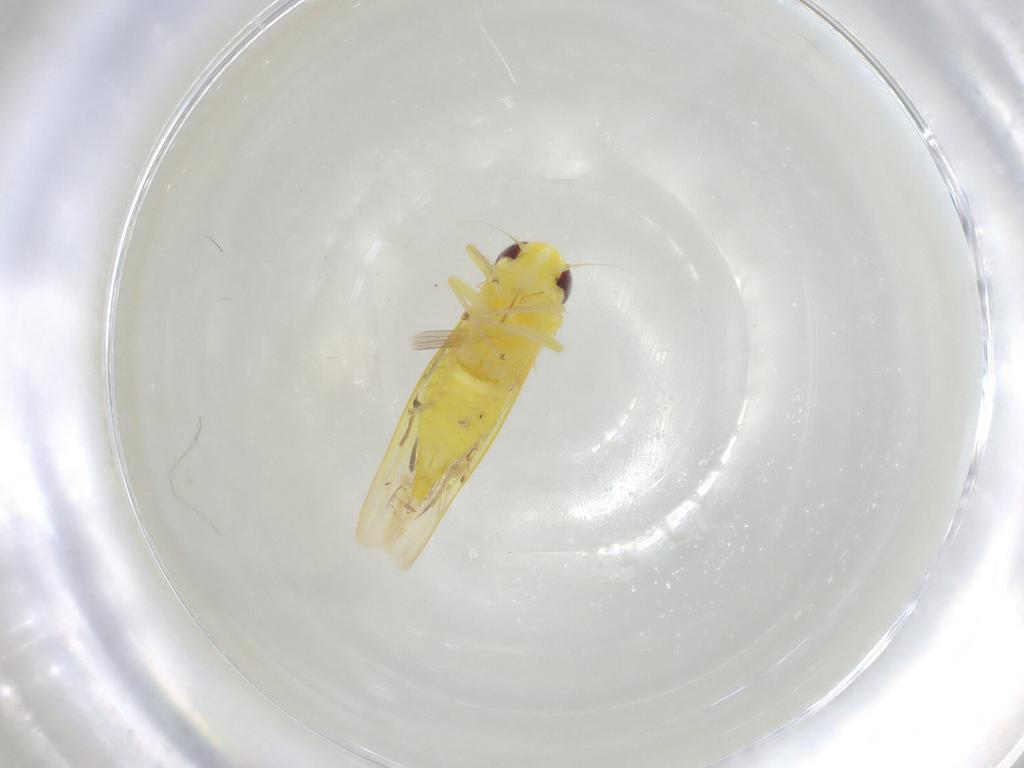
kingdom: Animalia
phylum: Arthropoda
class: Insecta
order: Hemiptera
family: Cicadellidae
